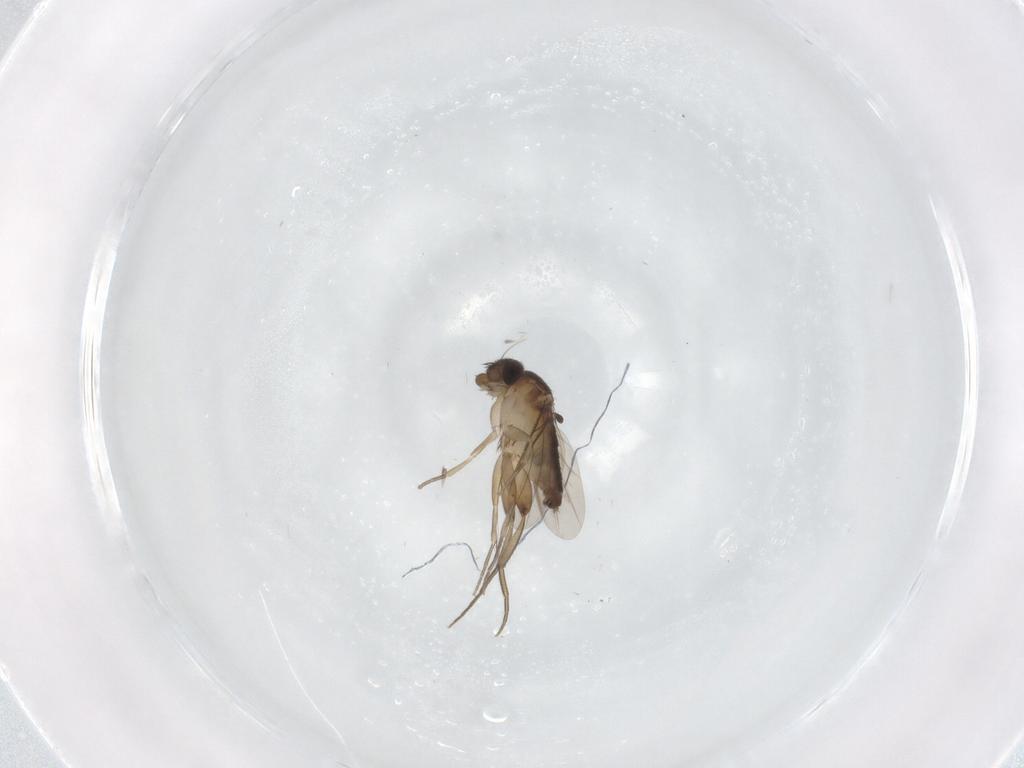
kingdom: Animalia
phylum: Arthropoda
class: Insecta
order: Diptera
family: Phoridae
